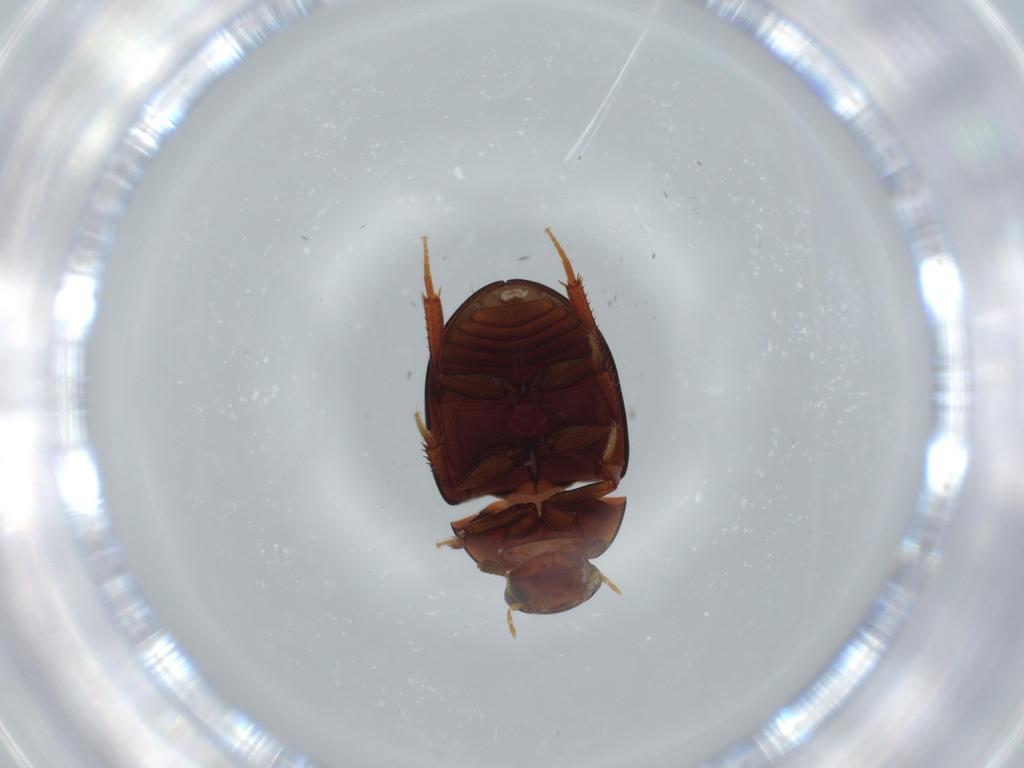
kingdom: Animalia
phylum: Arthropoda
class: Insecta
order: Coleoptera
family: Hydrophilidae
